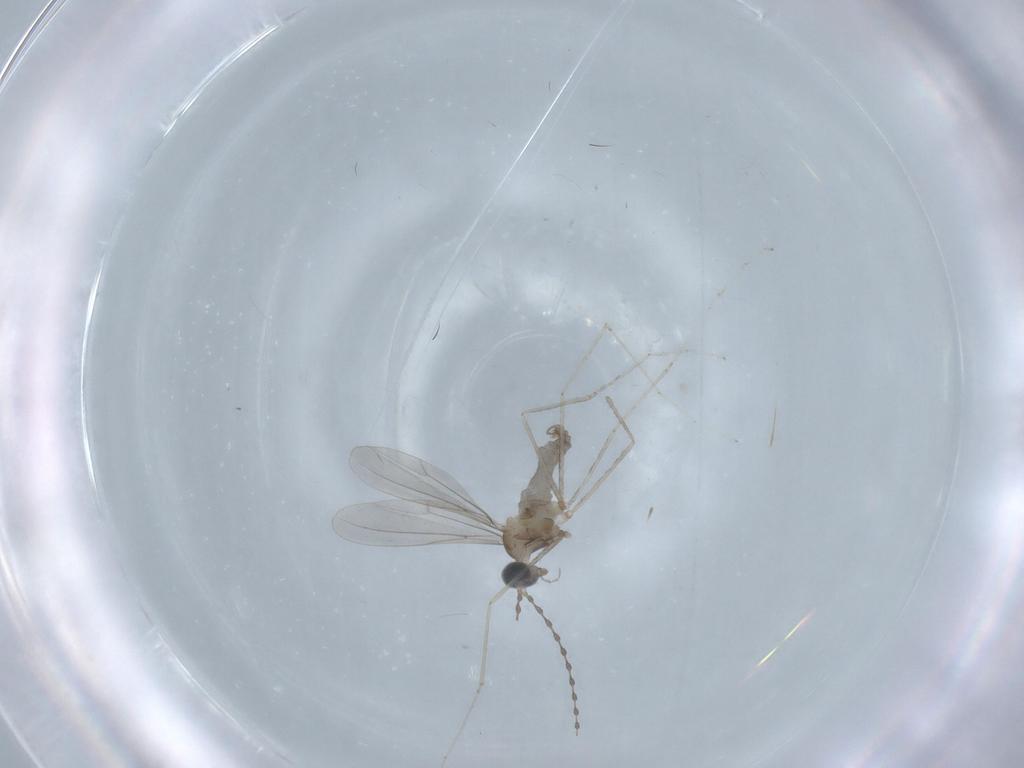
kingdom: Animalia
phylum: Arthropoda
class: Insecta
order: Diptera
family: Cecidomyiidae
